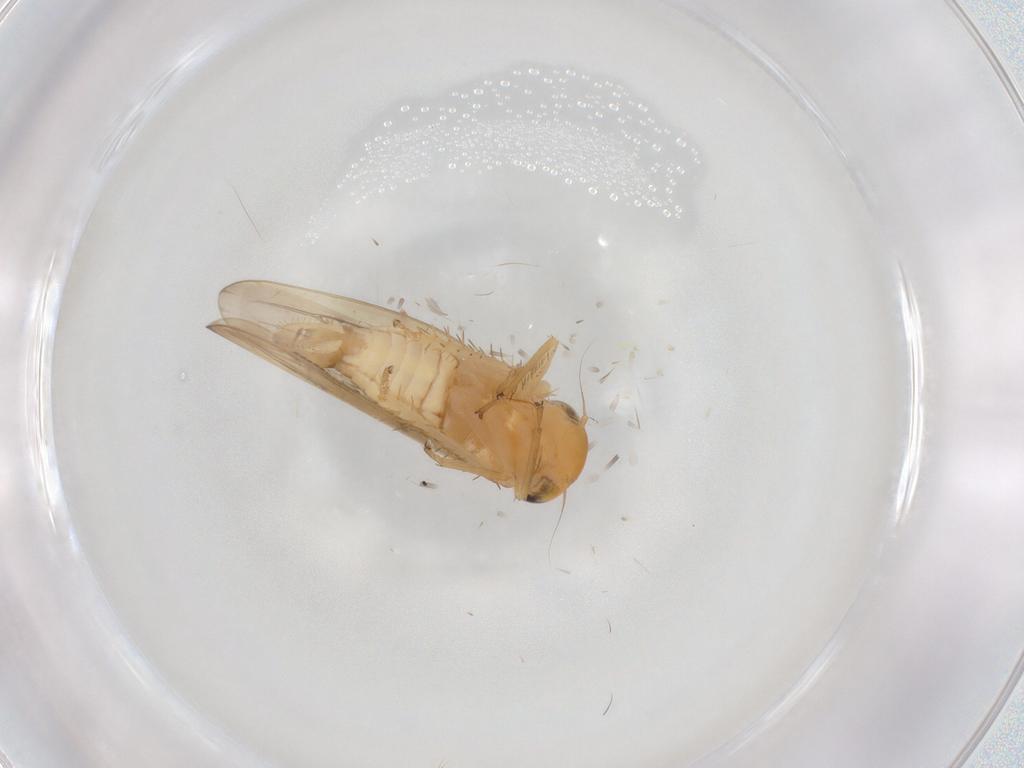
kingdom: Animalia
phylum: Arthropoda
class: Insecta
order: Hemiptera
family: Cicadellidae
